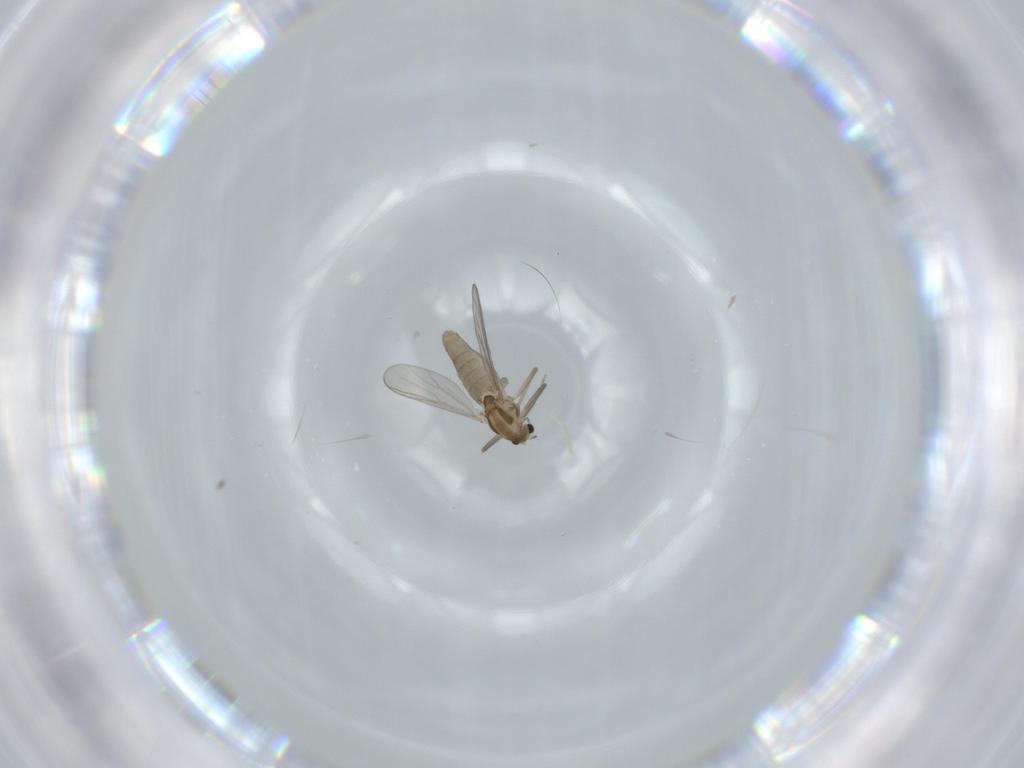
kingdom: Animalia
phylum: Arthropoda
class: Insecta
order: Diptera
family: Chironomidae
